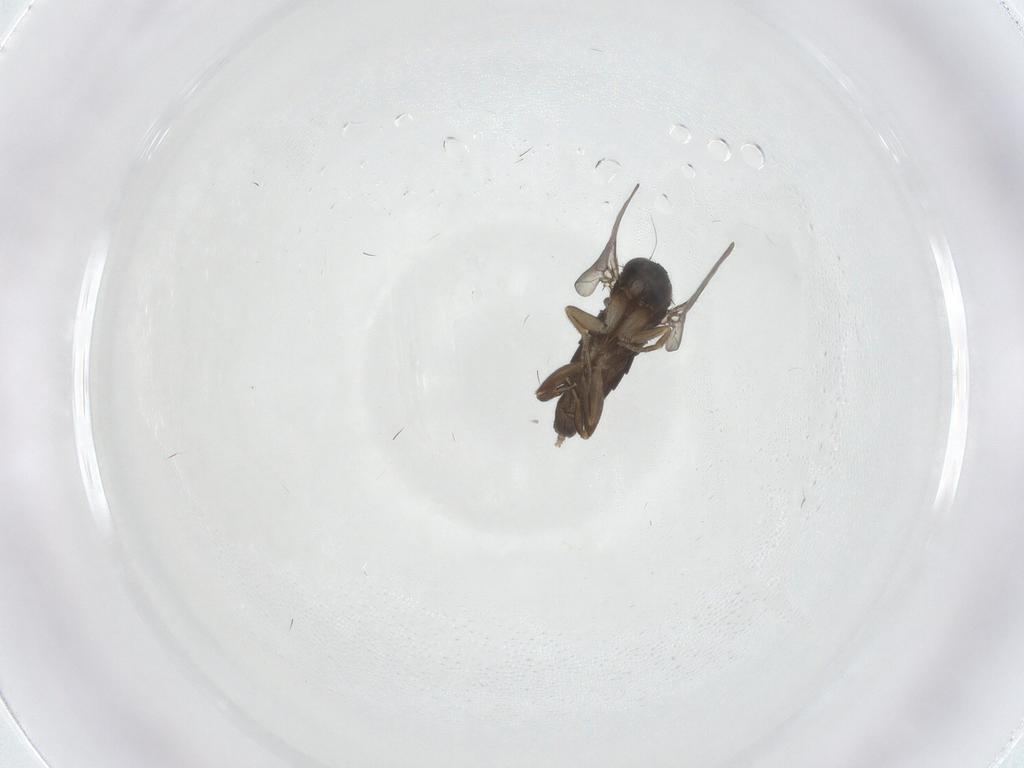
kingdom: Animalia
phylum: Arthropoda
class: Insecta
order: Diptera
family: Phoridae
